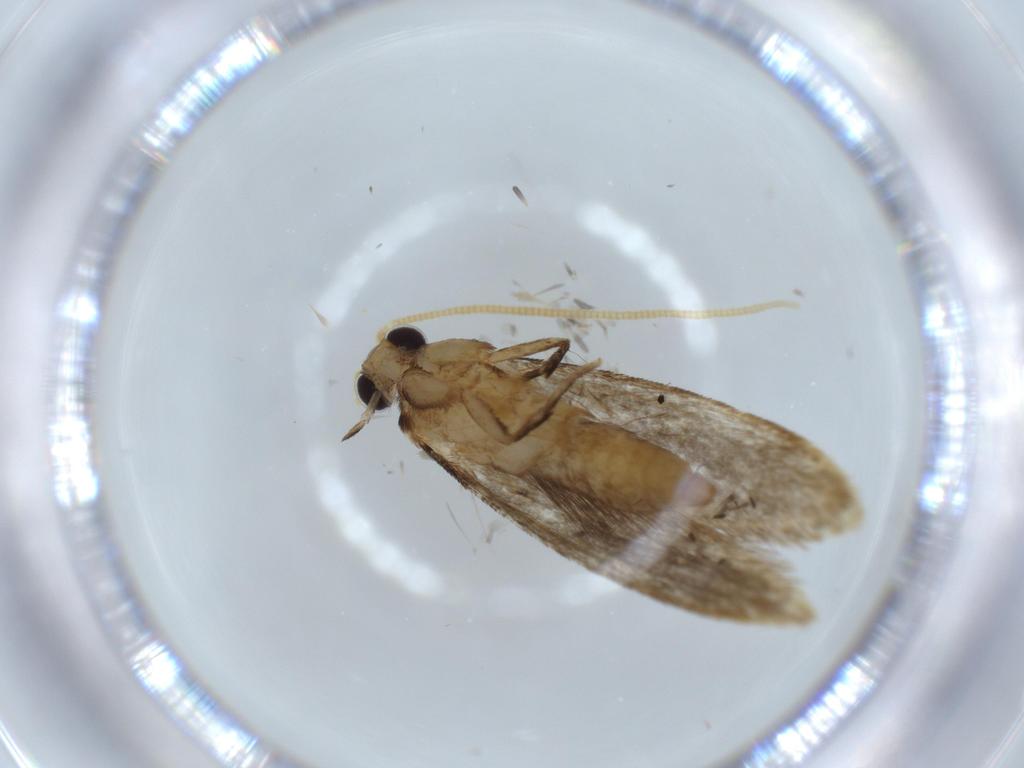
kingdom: Animalia
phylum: Arthropoda
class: Insecta
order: Lepidoptera
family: Tineidae
